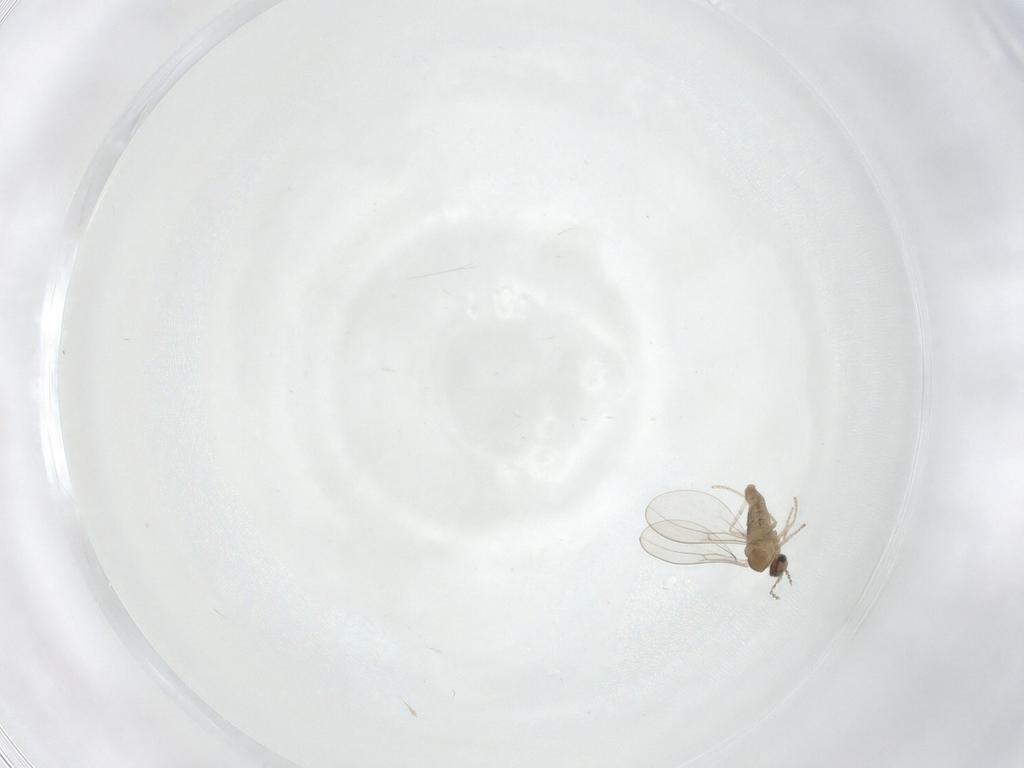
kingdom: Animalia
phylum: Arthropoda
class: Insecta
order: Diptera
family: Cecidomyiidae
